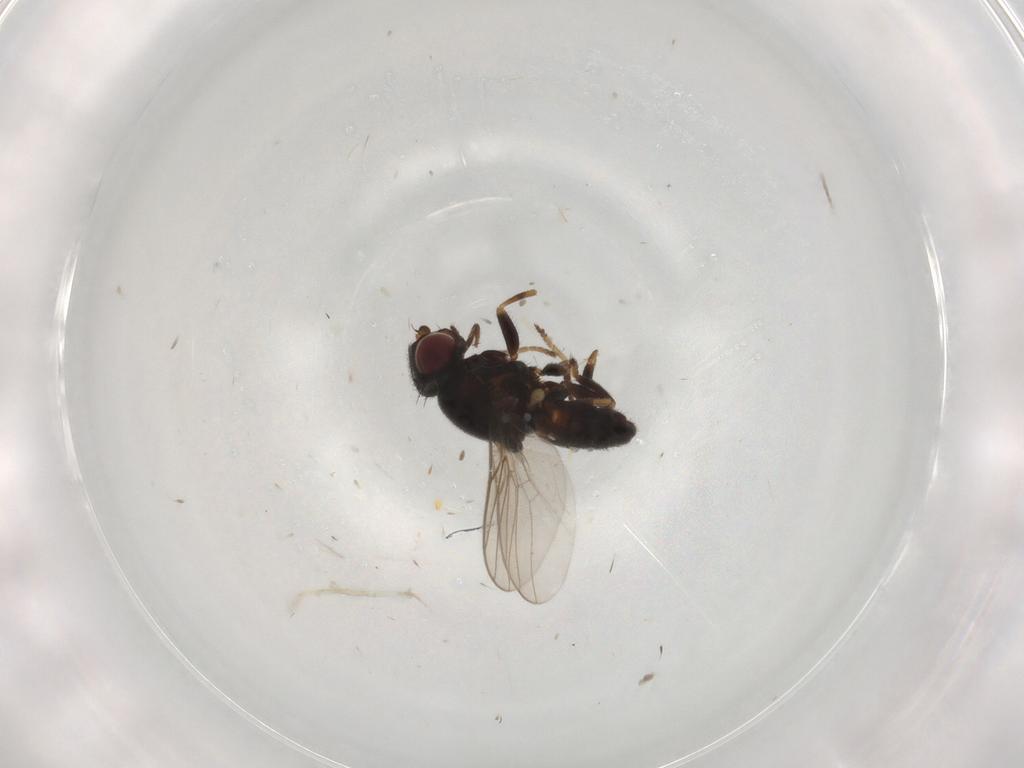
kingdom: Animalia
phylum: Arthropoda
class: Insecta
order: Diptera
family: Chloropidae
